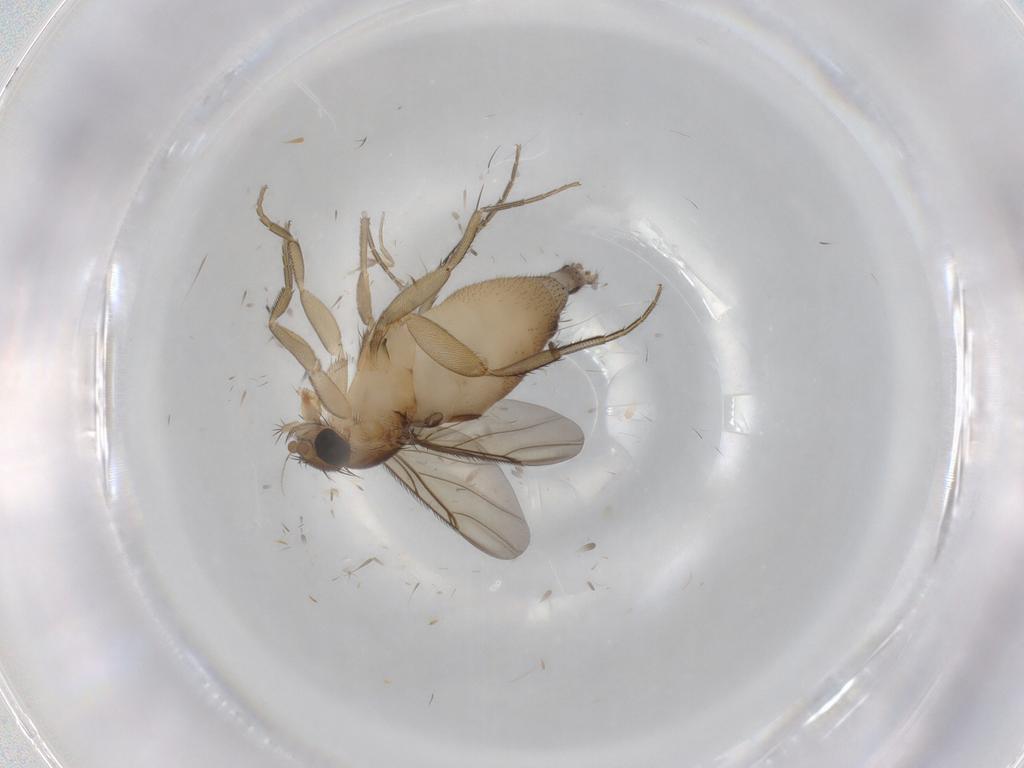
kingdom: Animalia
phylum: Arthropoda
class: Insecta
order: Diptera
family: Phoridae
